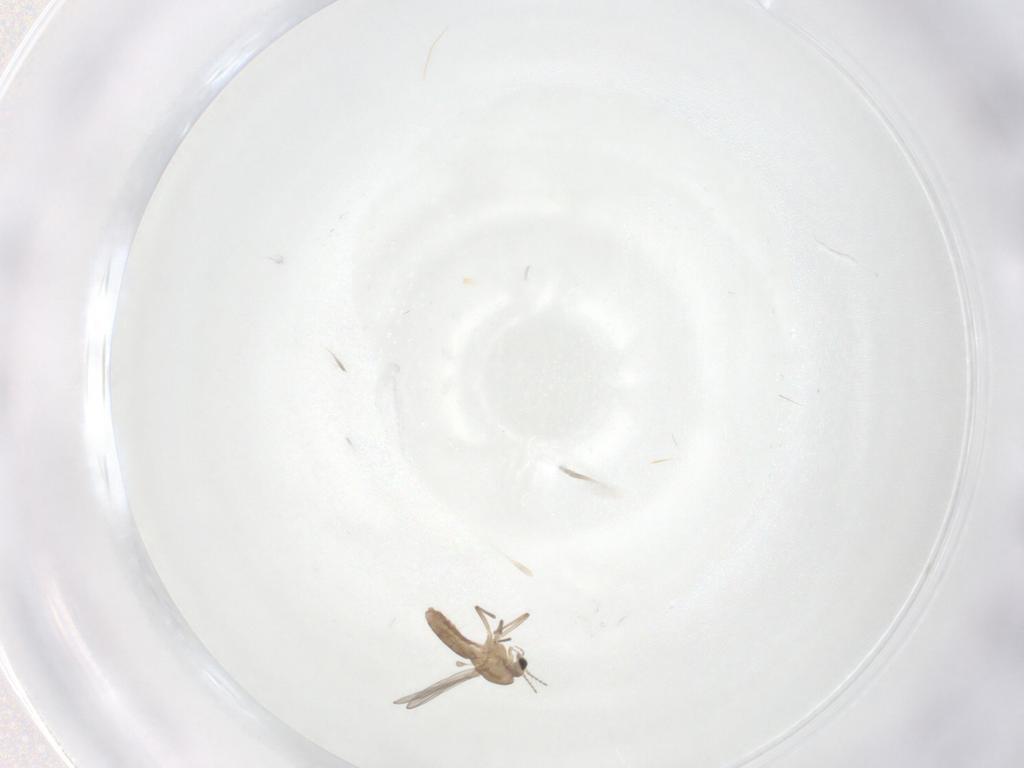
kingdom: Animalia
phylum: Arthropoda
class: Insecta
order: Diptera
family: Chironomidae
